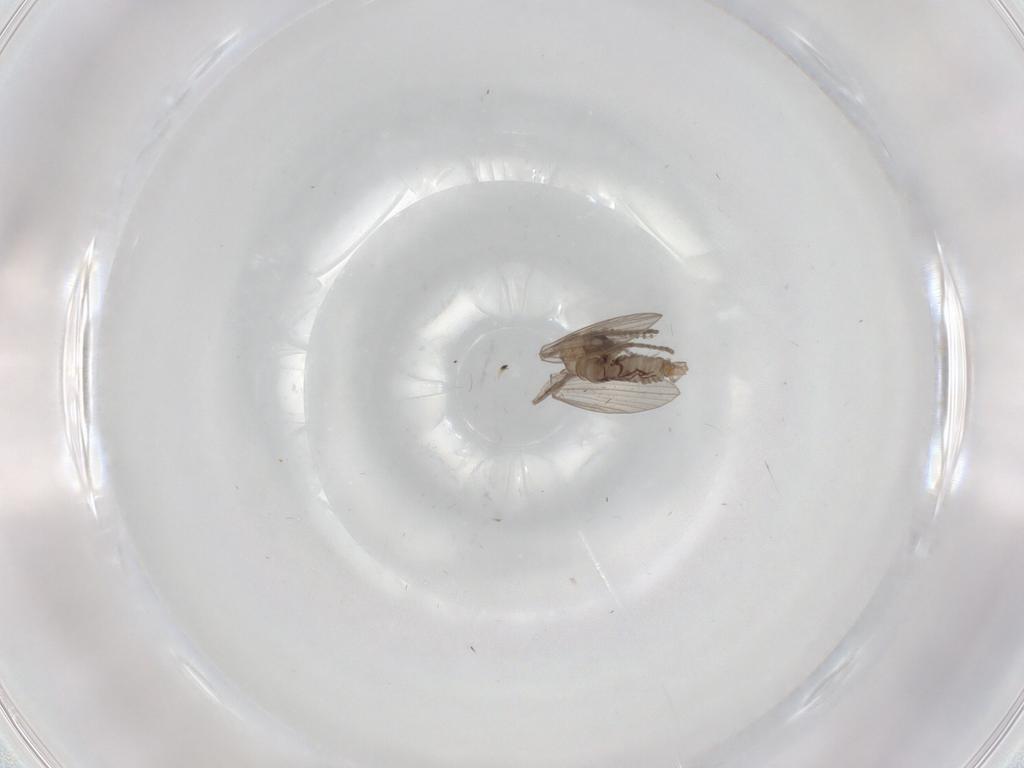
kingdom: Animalia
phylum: Arthropoda
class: Insecta
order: Diptera
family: Psychodidae
